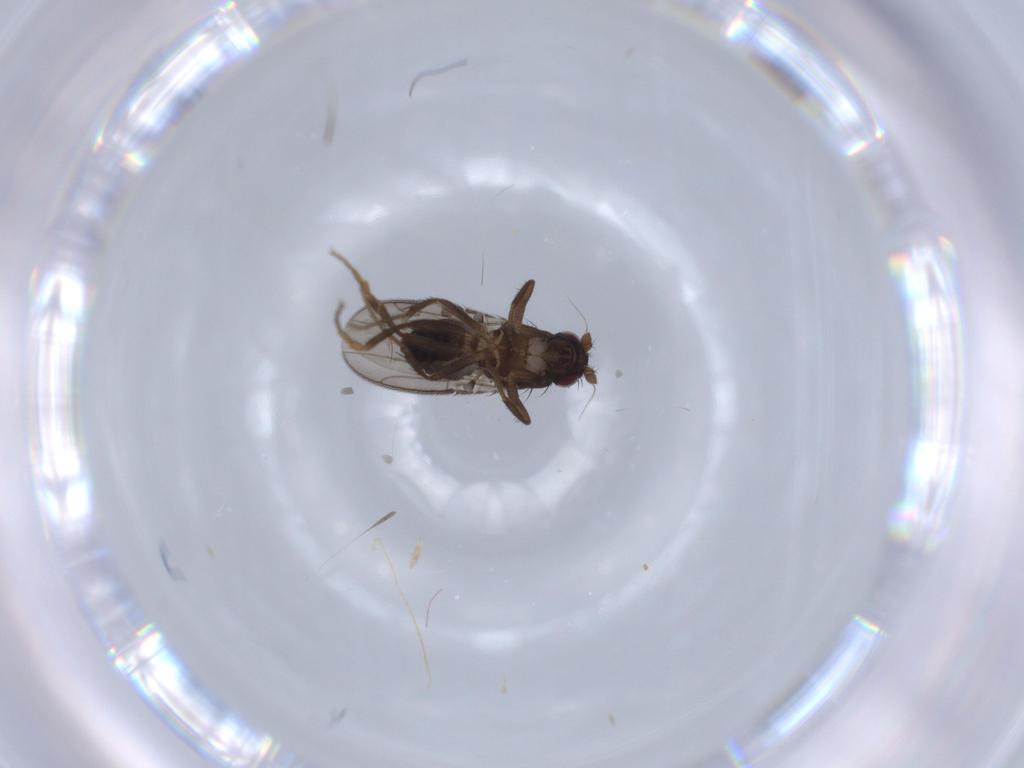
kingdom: Animalia
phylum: Arthropoda
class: Insecta
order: Diptera
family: Sphaeroceridae
